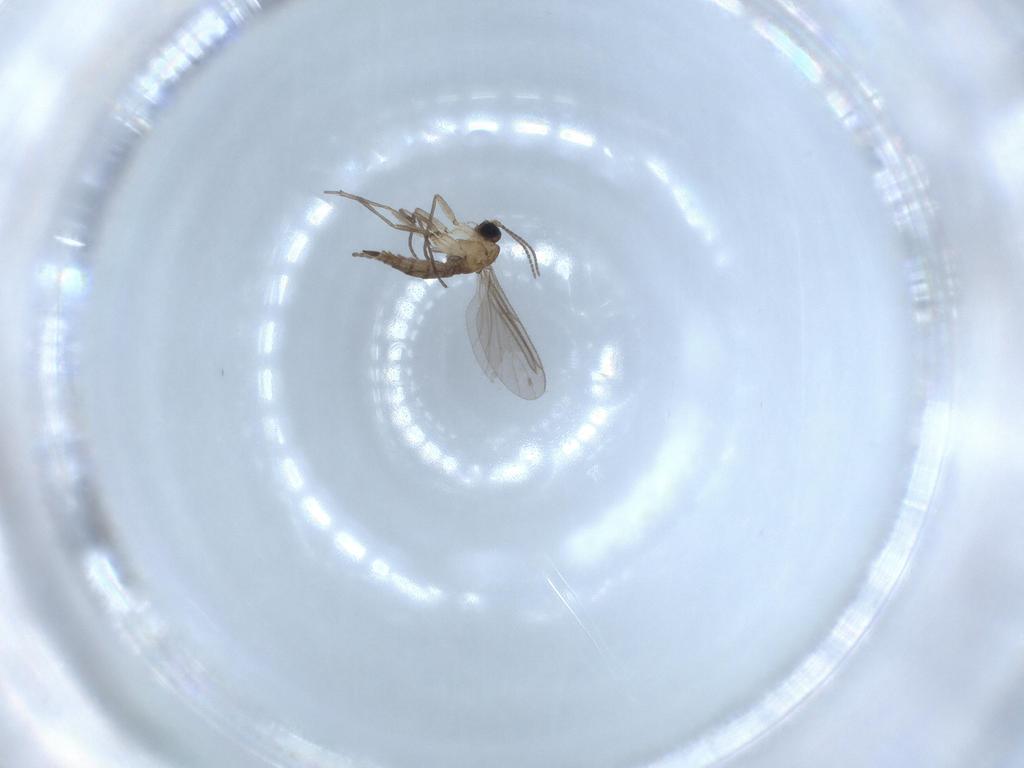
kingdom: Animalia
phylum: Arthropoda
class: Insecta
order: Diptera
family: Sciaridae
